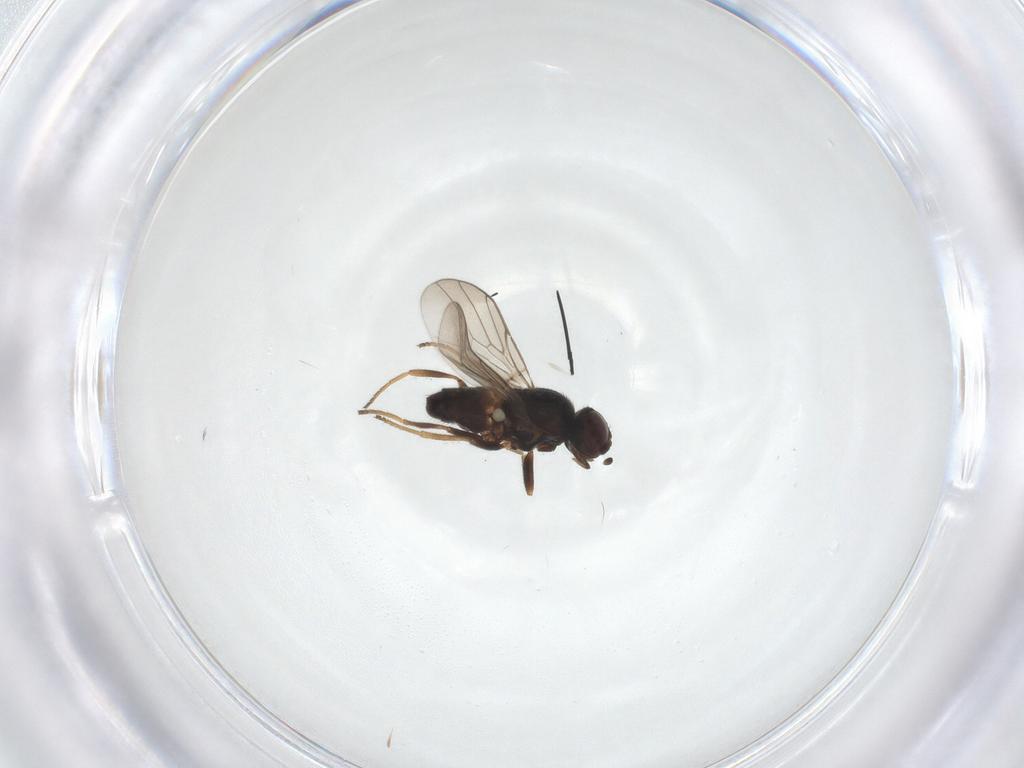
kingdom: Animalia
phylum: Arthropoda
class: Insecta
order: Diptera
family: Chloropidae
